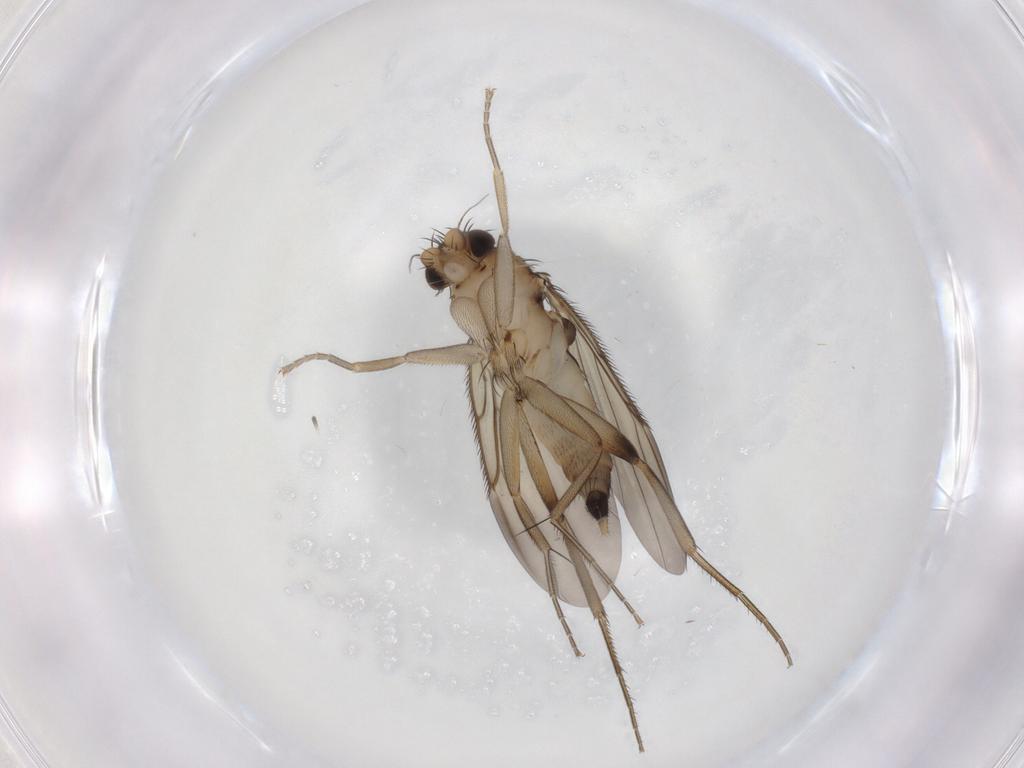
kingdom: Animalia
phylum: Arthropoda
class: Insecta
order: Diptera
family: Phoridae
